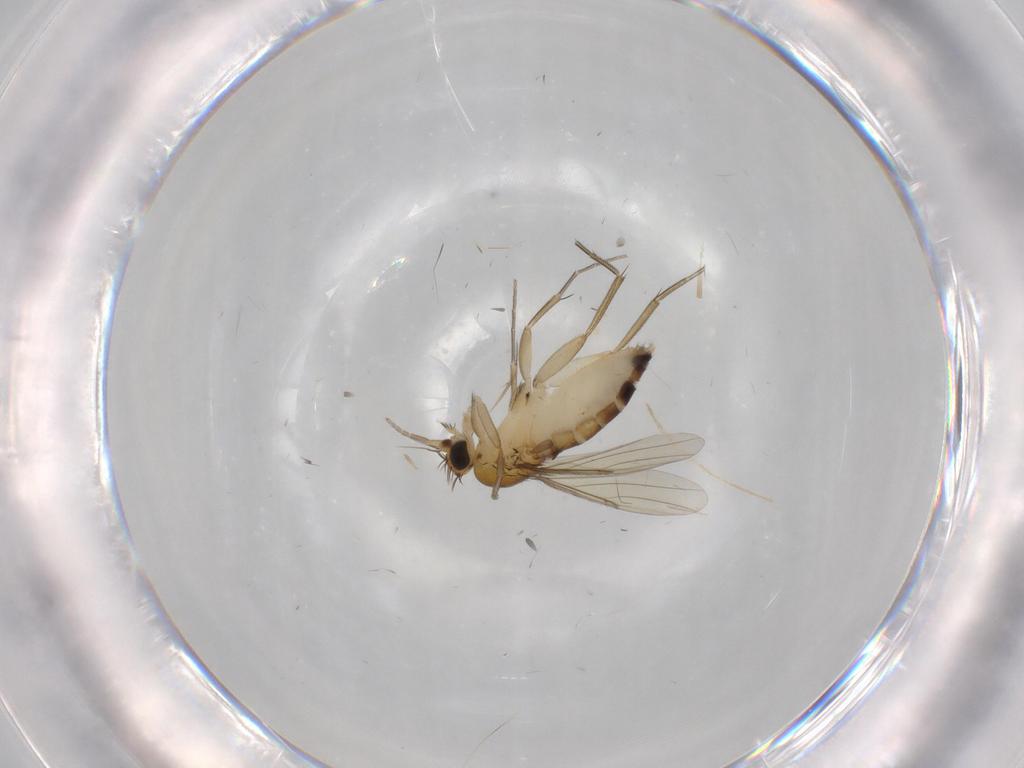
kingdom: Animalia
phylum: Arthropoda
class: Insecta
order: Diptera
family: Phoridae
